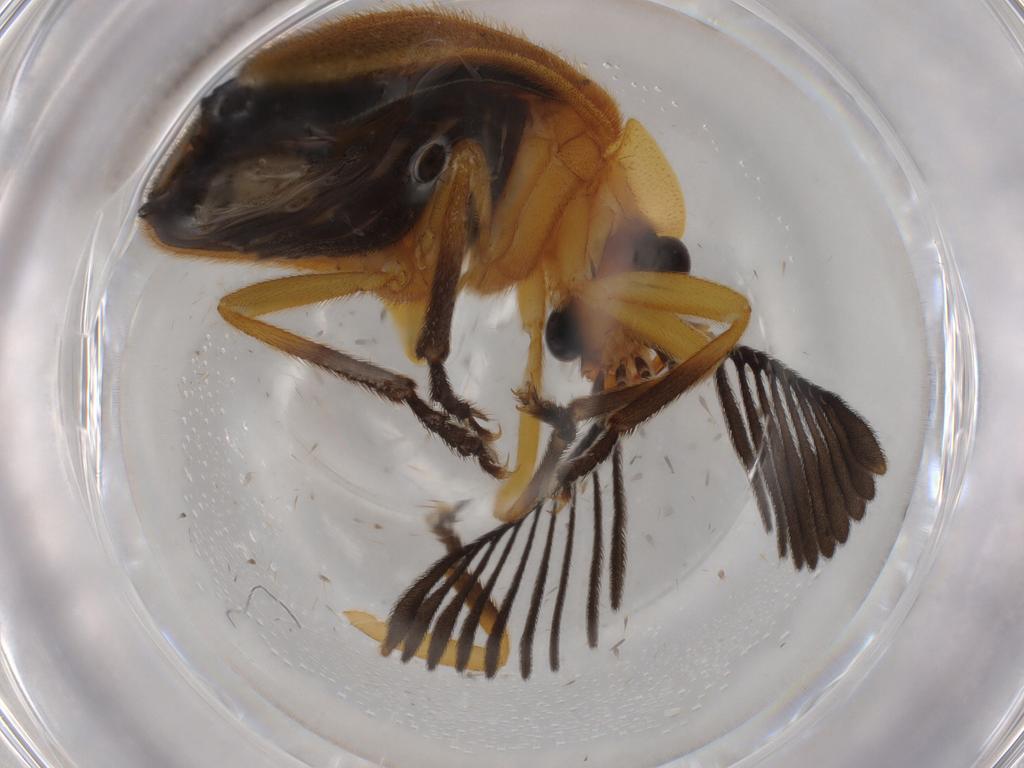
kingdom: Animalia
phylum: Arthropoda
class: Insecta
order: Coleoptera
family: Lampyridae
